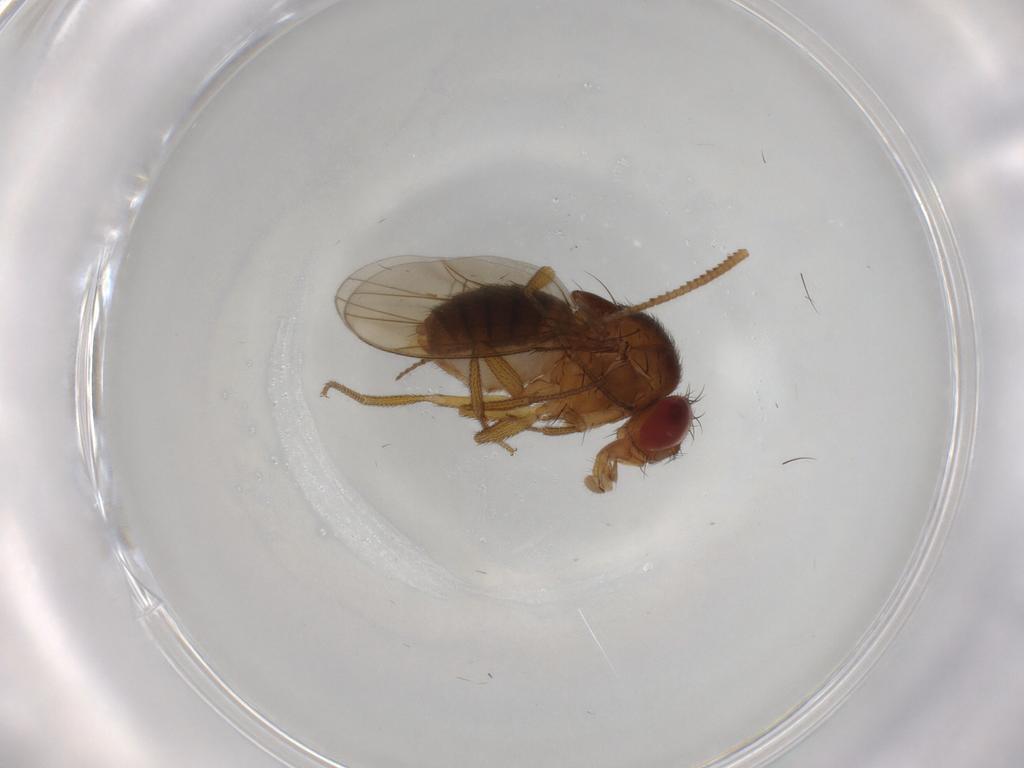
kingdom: Animalia
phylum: Arthropoda
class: Insecta
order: Diptera
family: Drosophilidae
